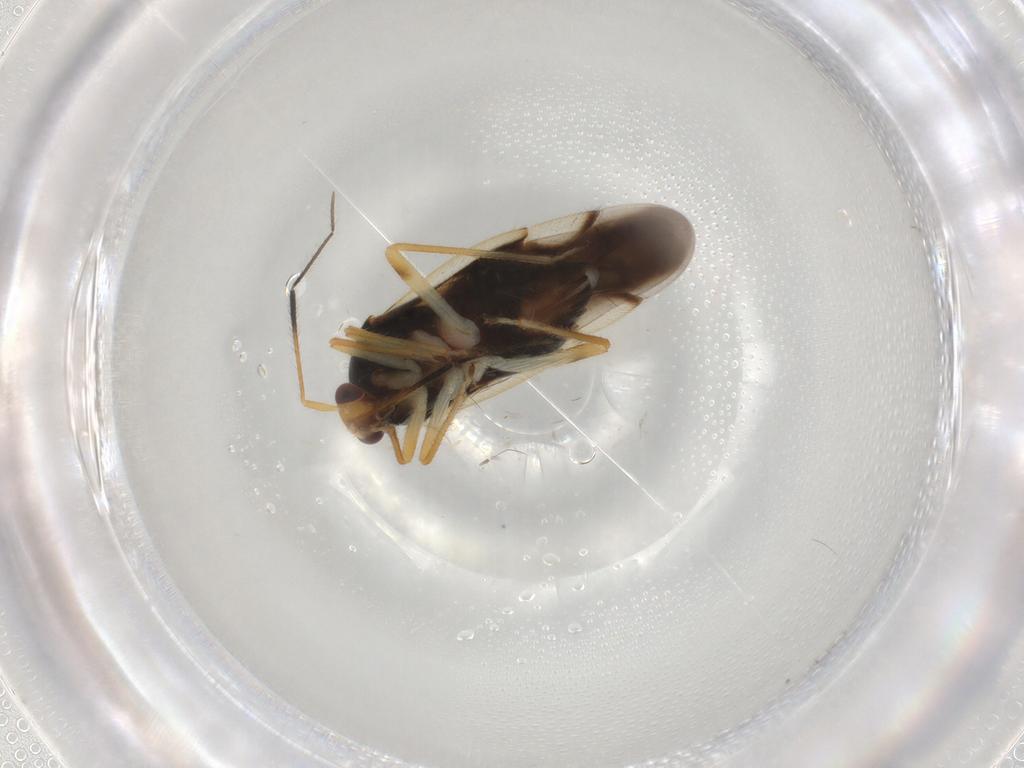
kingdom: Animalia
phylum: Arthropoda
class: Insecta
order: Hemiptera
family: Miridae
